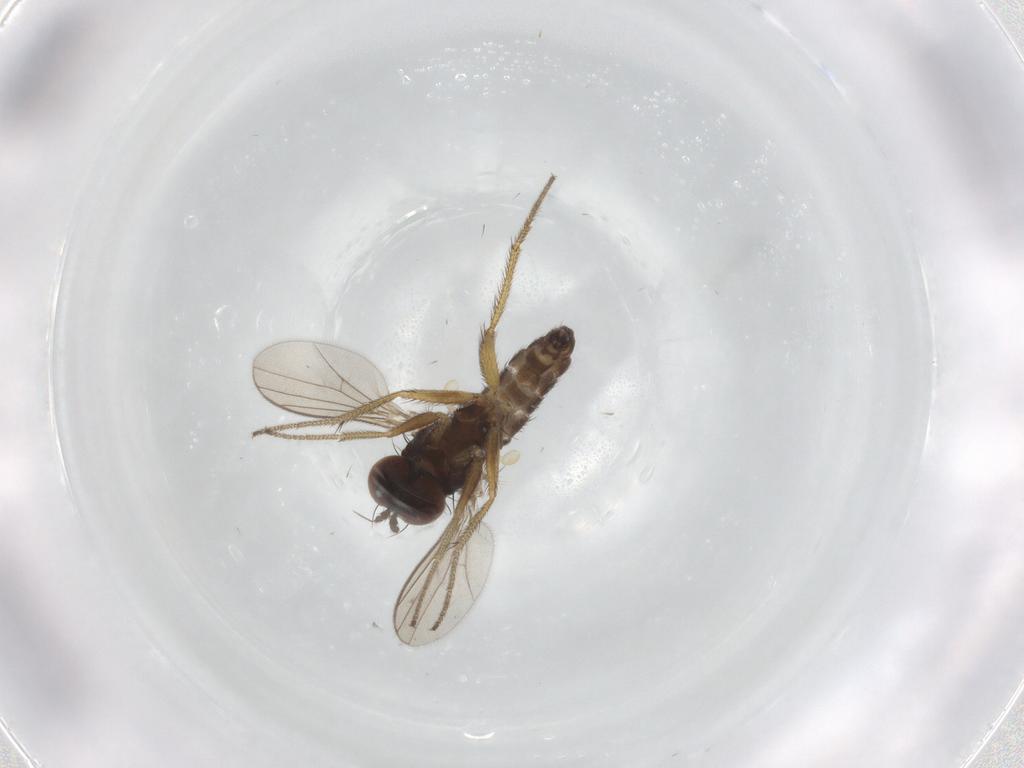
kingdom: Animalia
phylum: Arthropoda
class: Insecta
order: Diptera
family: Dolichopodidae
